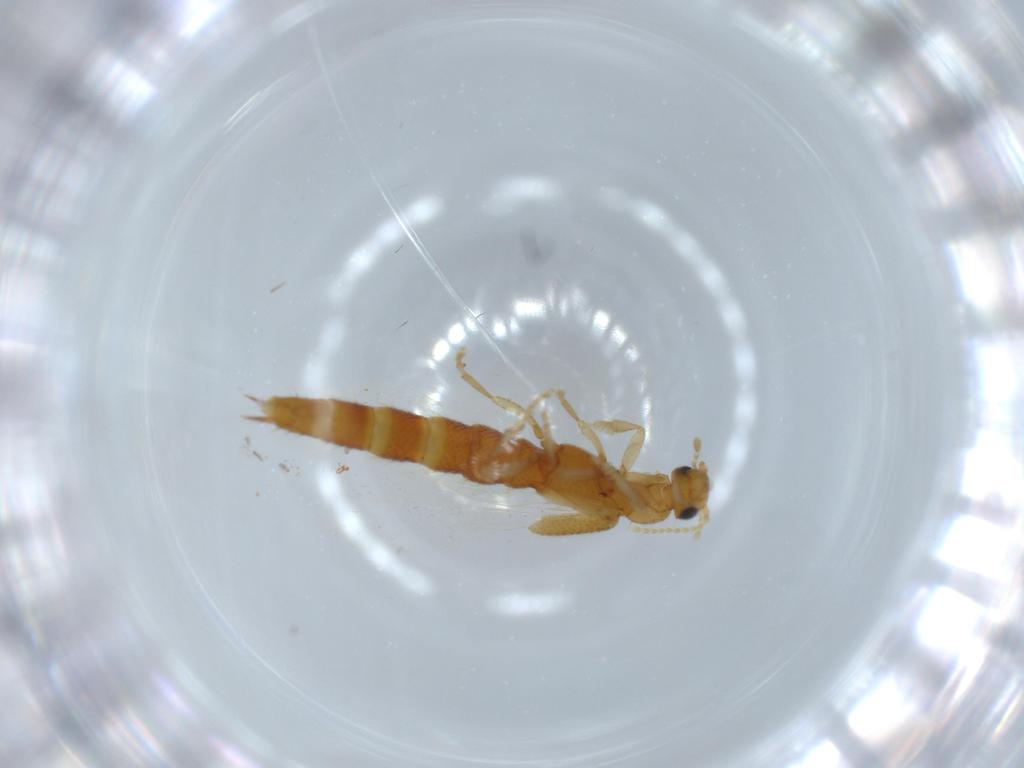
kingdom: Animalia
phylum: Arthropoda
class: Insecta
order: Coleoptera
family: Staphylinidae
